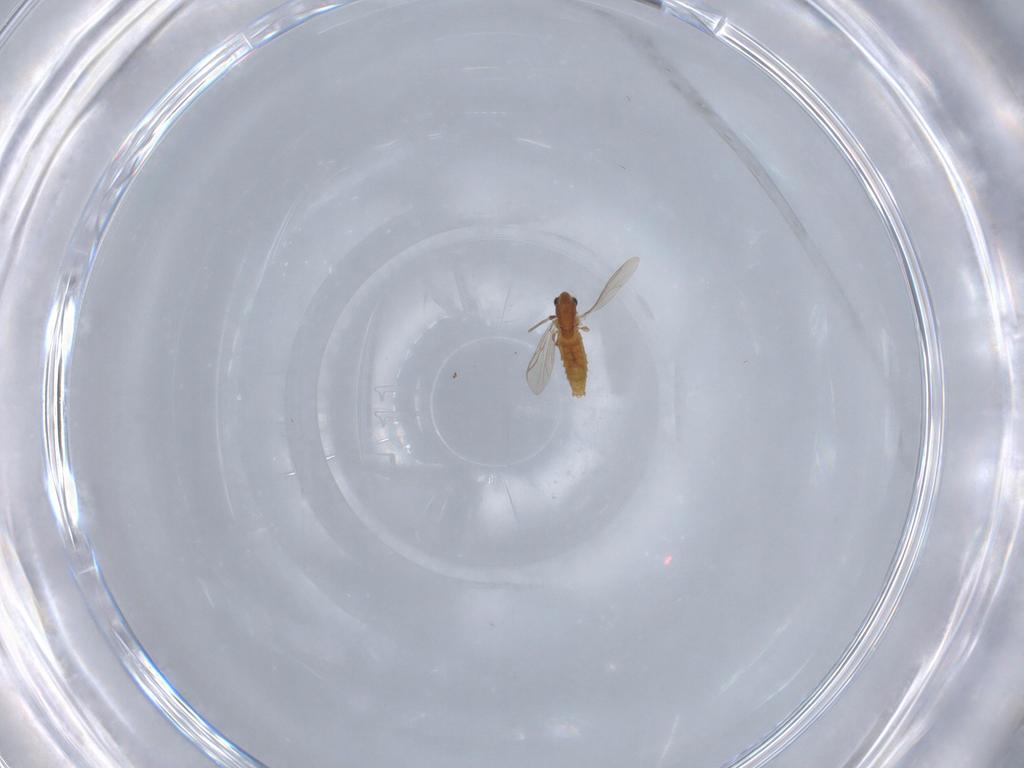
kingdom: Animalia
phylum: Arthropoda
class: Insecta
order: Diptera
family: Chironomidae
